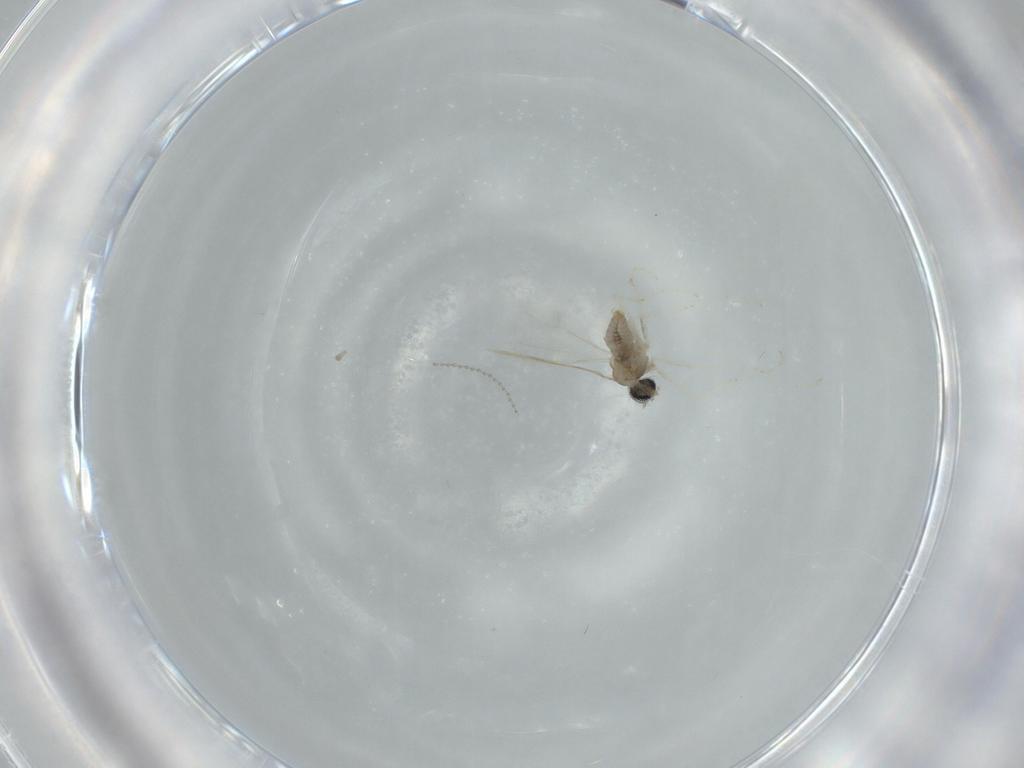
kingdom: Animalia
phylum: Arthropoda
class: Insecta
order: Diptera
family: Cecidomyiidae
